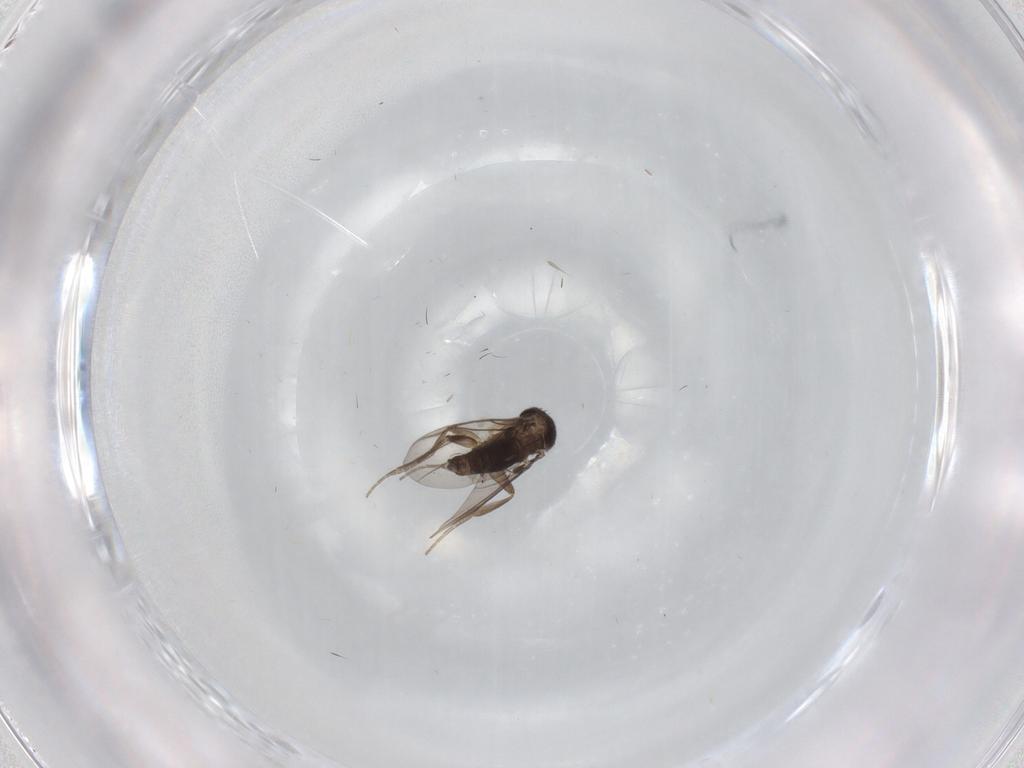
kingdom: Animalia
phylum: Arthropoda
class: Insecta
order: Diptera
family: Phoridae
